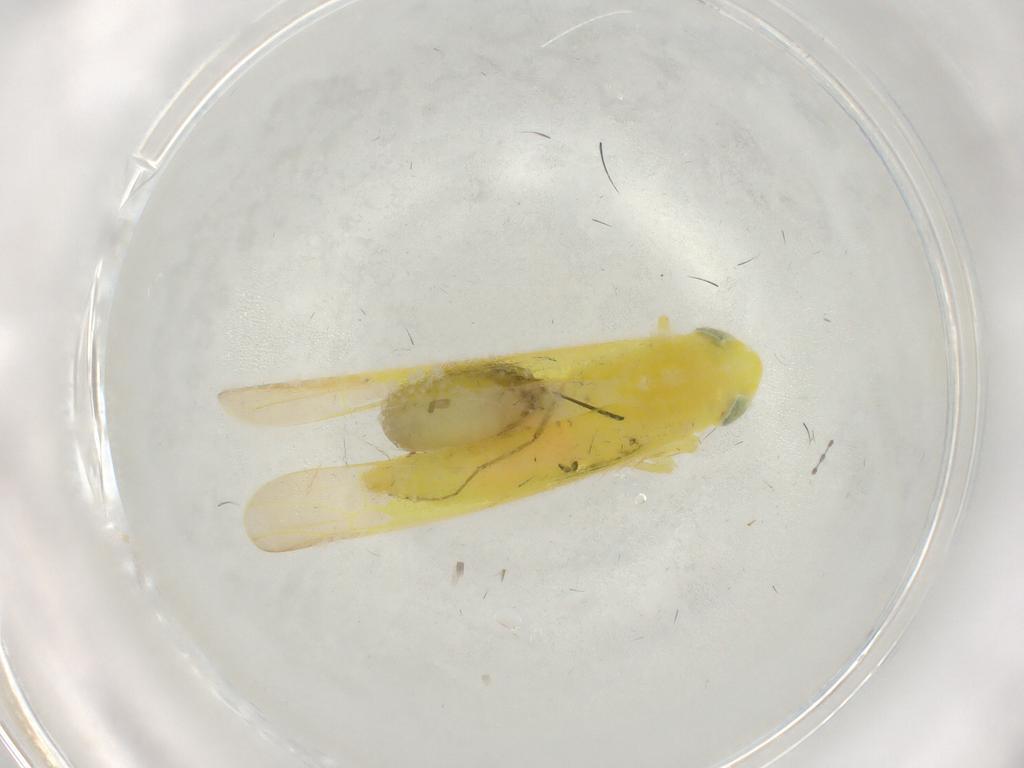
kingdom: Animalia
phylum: Arthropoda
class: Insecta
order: Hemiptera
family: Cicadellidae
